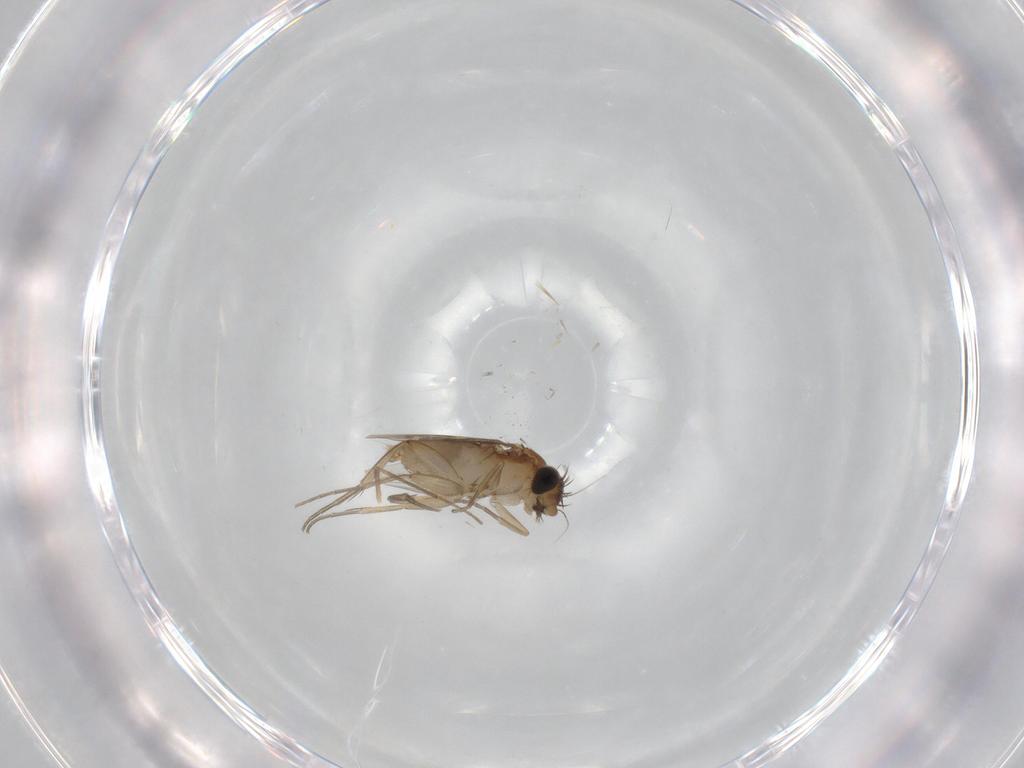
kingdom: Animalia
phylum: Arthropoda
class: Insecta
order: Diptera
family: Phoridae
